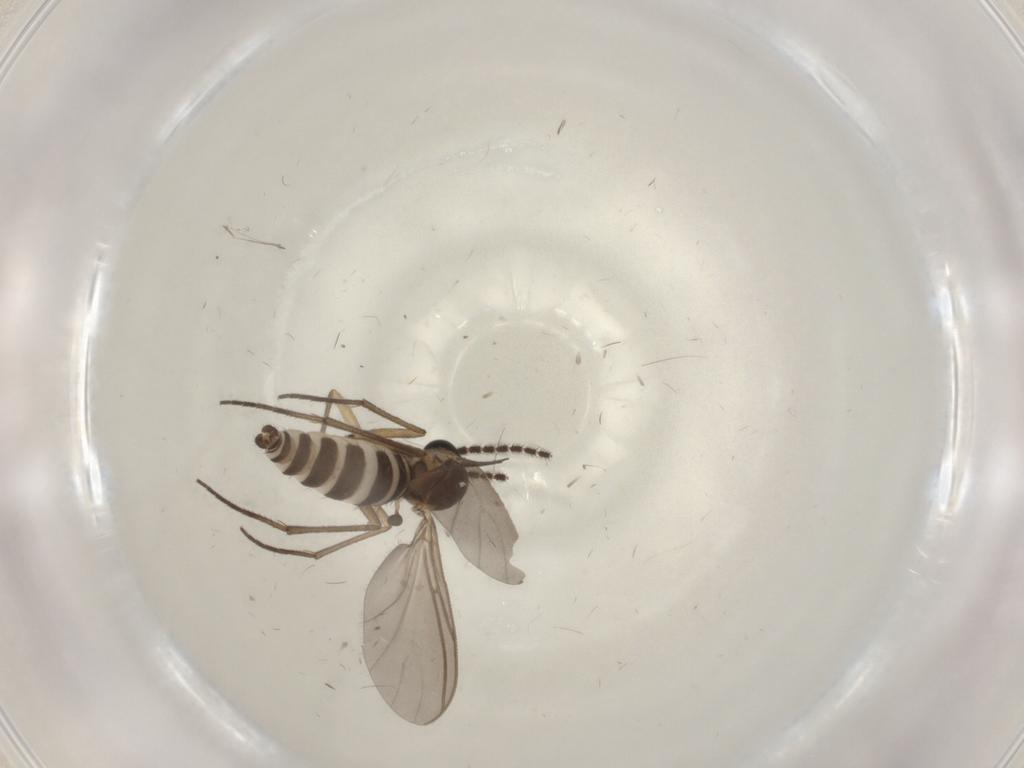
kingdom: Animalia
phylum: Arthropoda
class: Insecta
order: Diptera
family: Sciaridae
